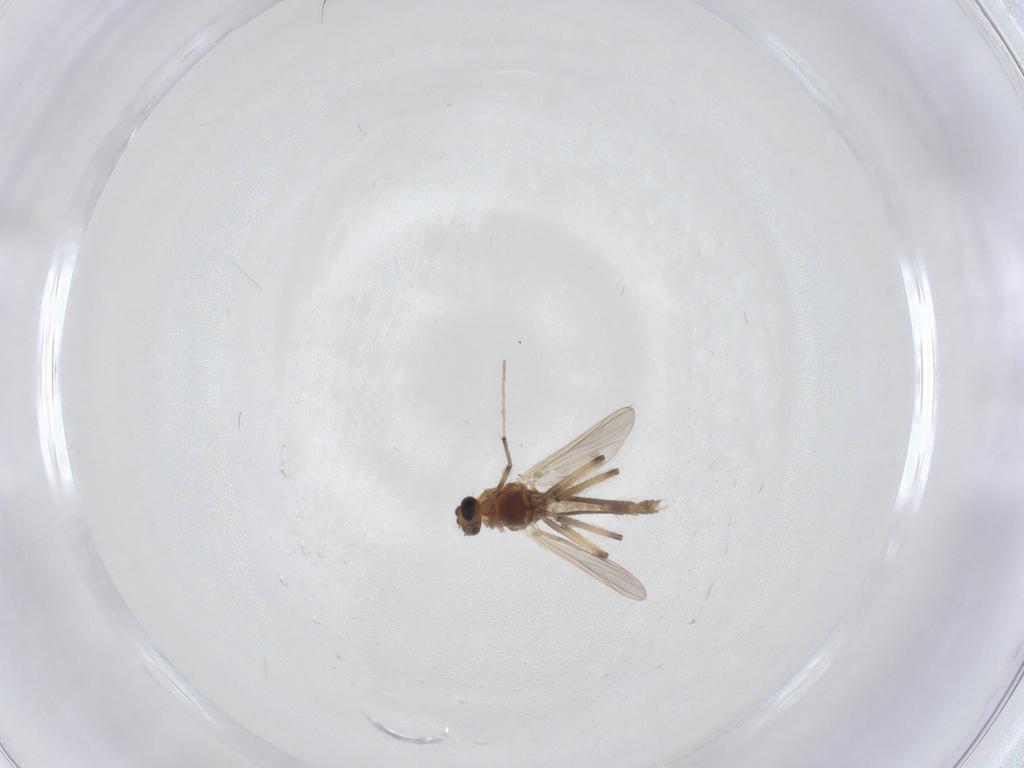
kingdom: Animalia
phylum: Arthropoda
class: Insecta
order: Diptera
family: Chironomidae
